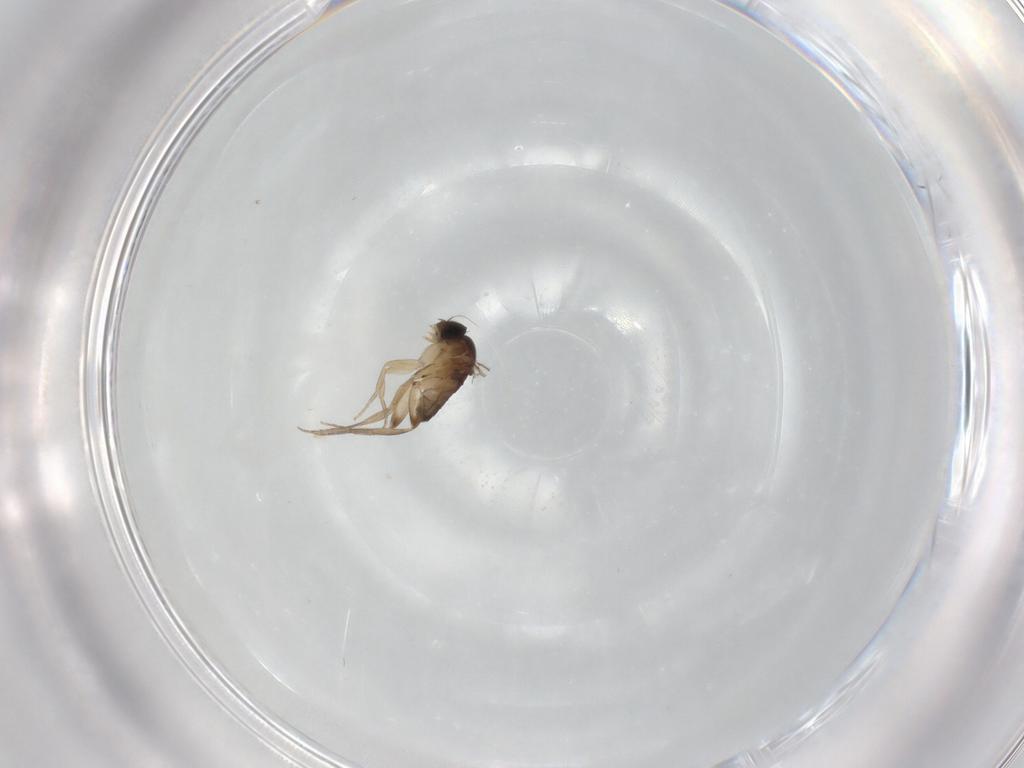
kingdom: Animalia
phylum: Arthropoda
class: Insecta
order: Diptera
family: Phoridae
